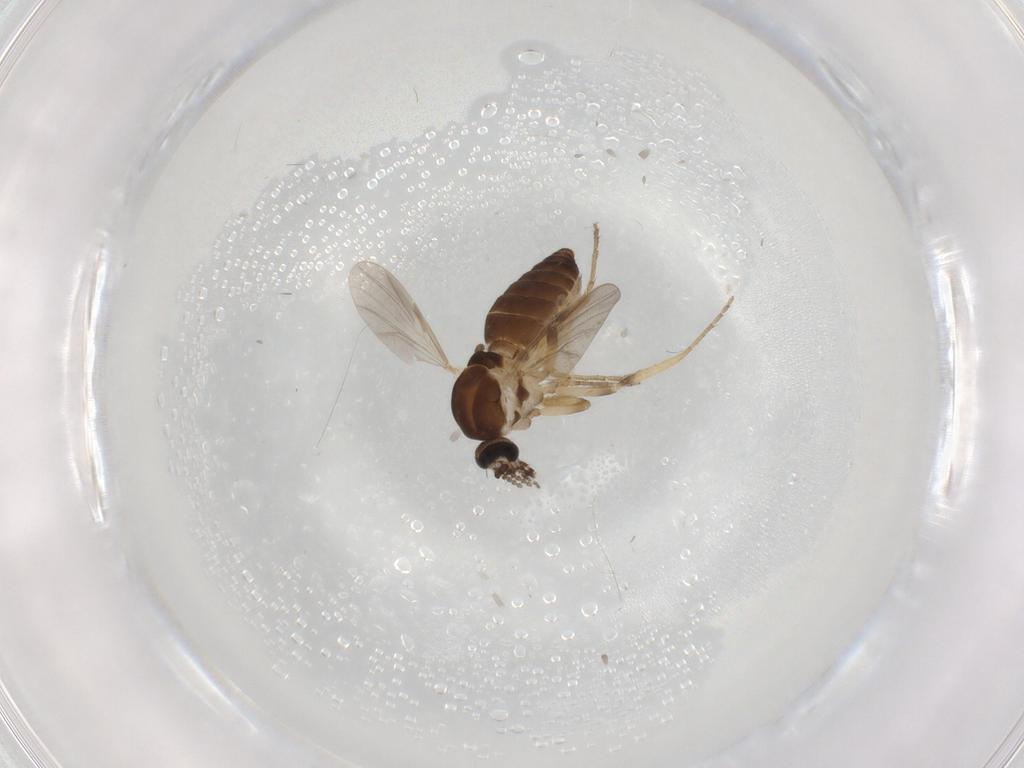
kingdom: Animalia
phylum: Arthropoda
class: Insecta
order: Diptera
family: Ceratopogonidae
